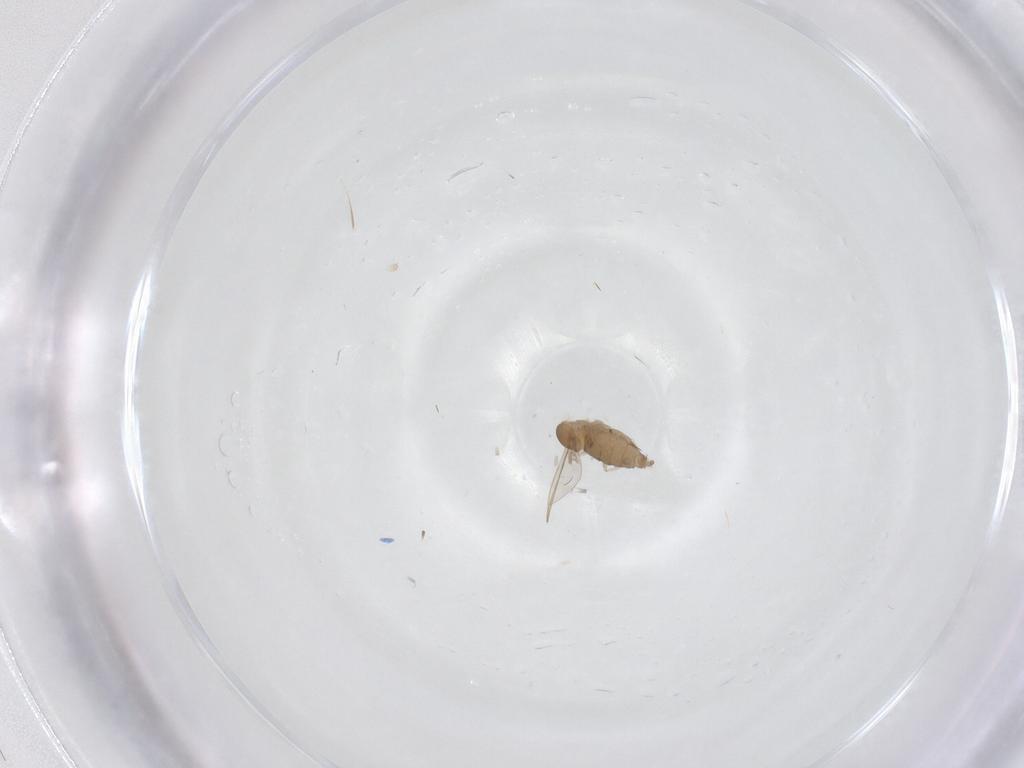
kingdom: Animalia
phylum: Arthropoda
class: Insecta
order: Diptera
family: Cecidomyiidae
